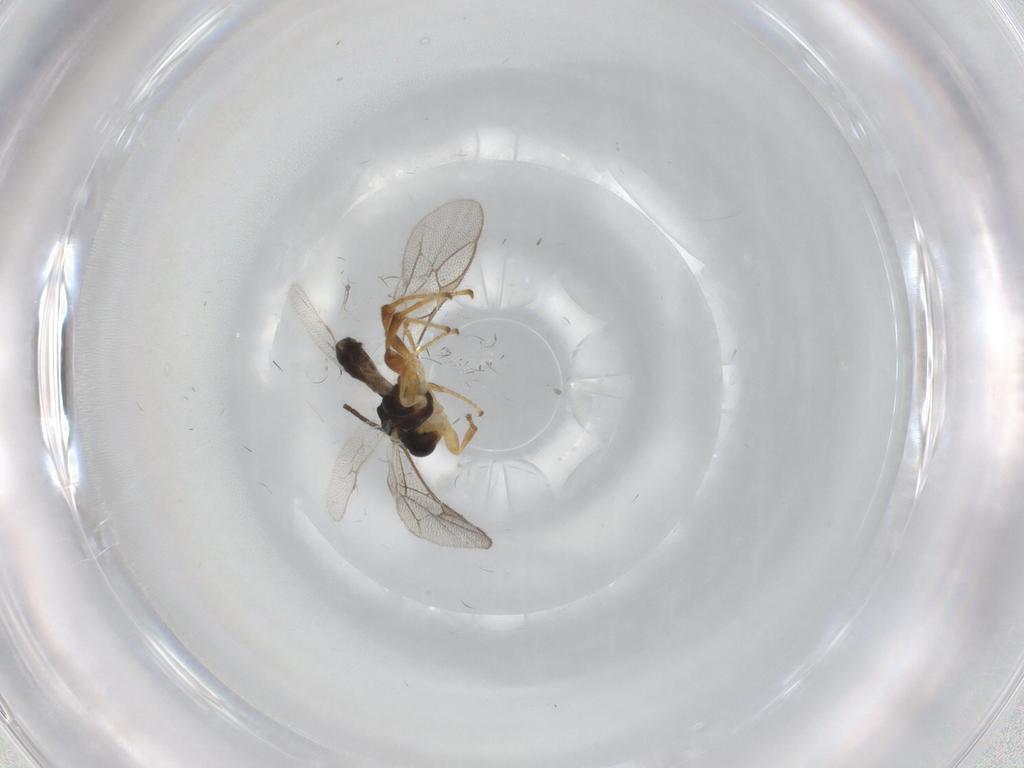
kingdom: Animalia
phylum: Arthropoda
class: Insecta
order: Hymenoptera
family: Ichneumonidae
